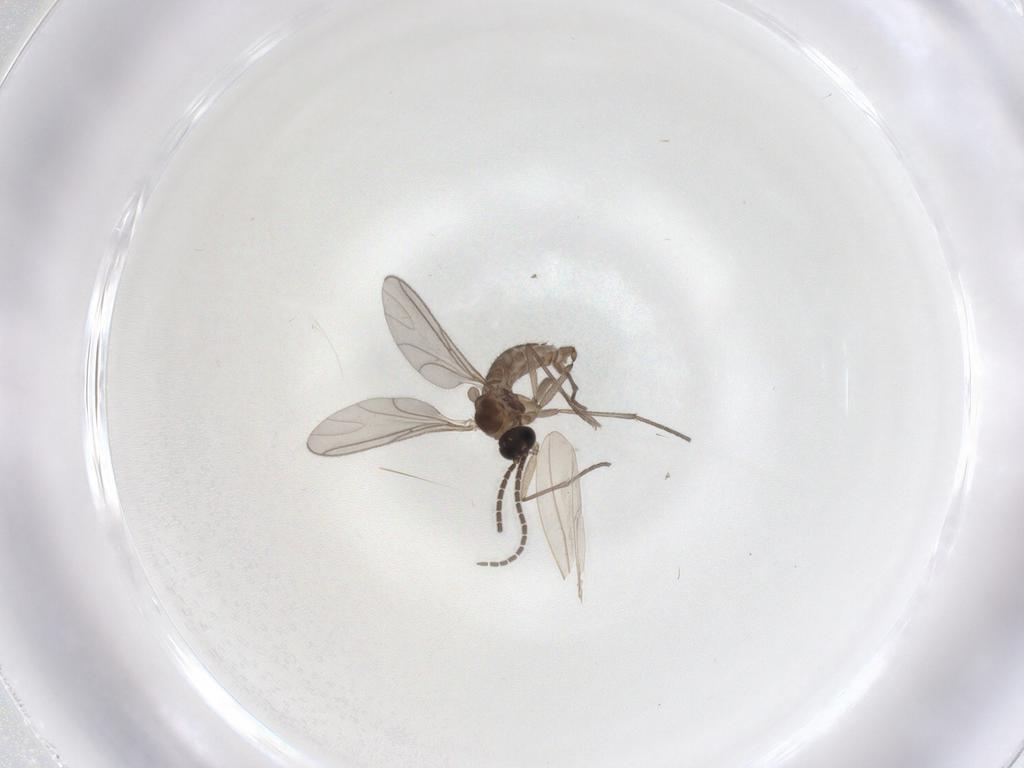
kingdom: Animalia
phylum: Arthropoda
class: Insecta
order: Diptera
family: Sciaridae
